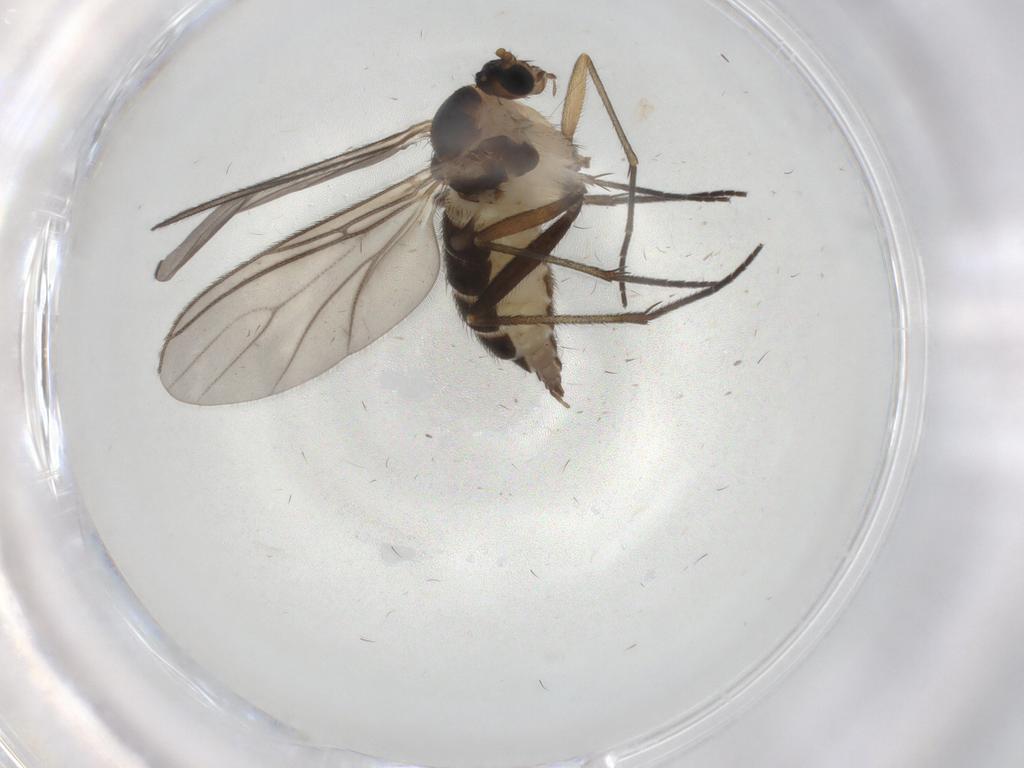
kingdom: Animalia
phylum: Arthropoda
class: Insecta
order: Diptera
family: Sciaridae
